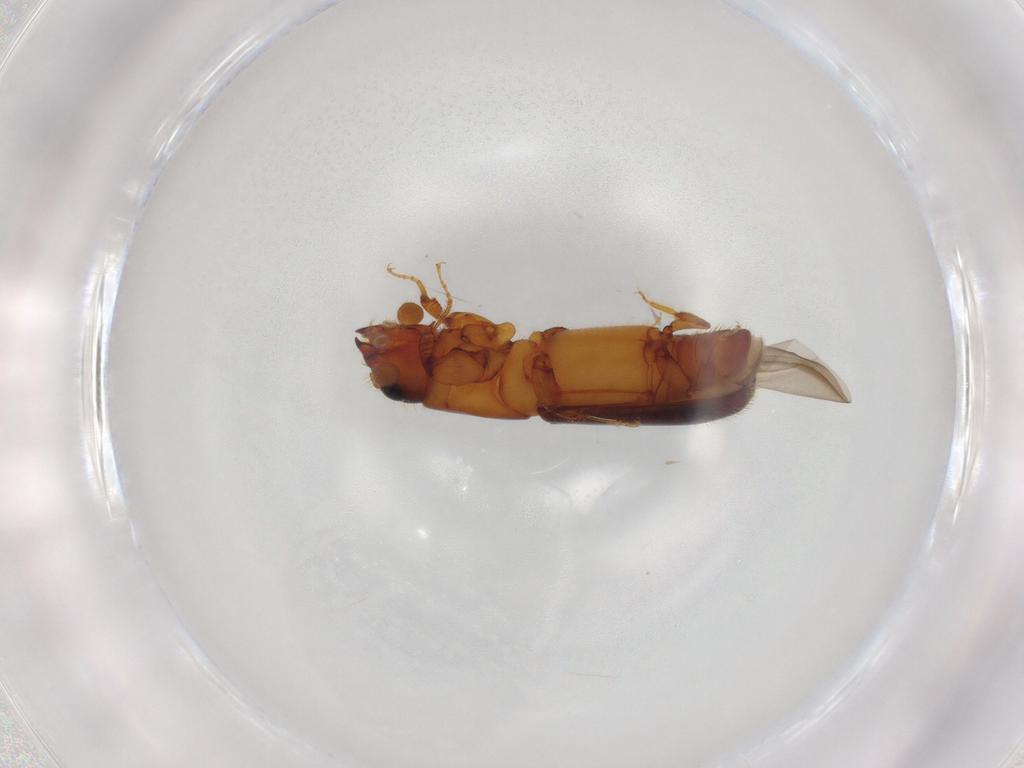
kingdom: Animalia
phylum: Arthropoda
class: Insecta
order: Coleoptera
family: Curculionidae
